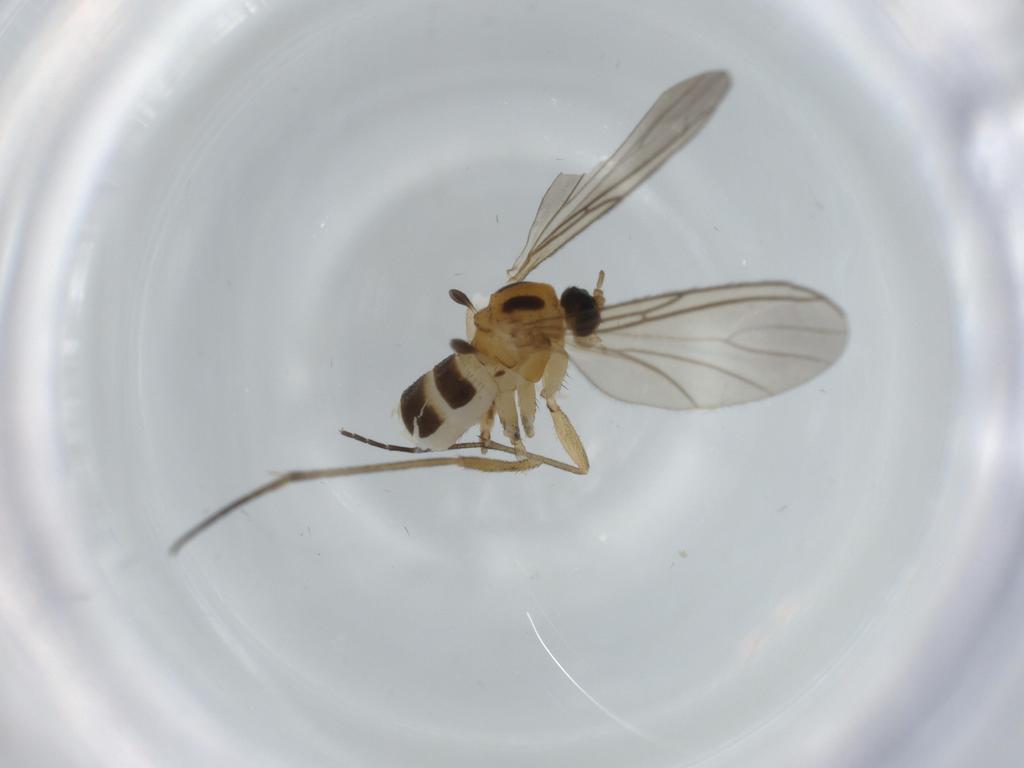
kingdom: Animalia
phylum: Arthropoda
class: Insecta
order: Diptera
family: Sciaridae
